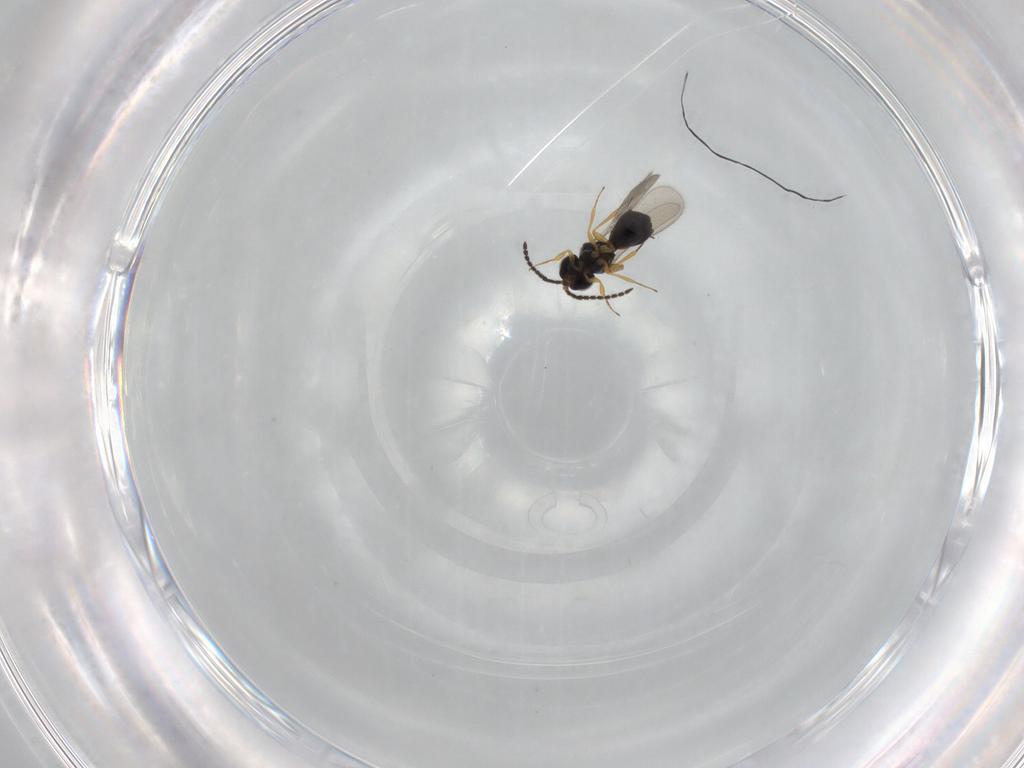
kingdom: Animalia
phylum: Arthropoda
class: Insecta
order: Hymenoptera
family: Scelionidae
